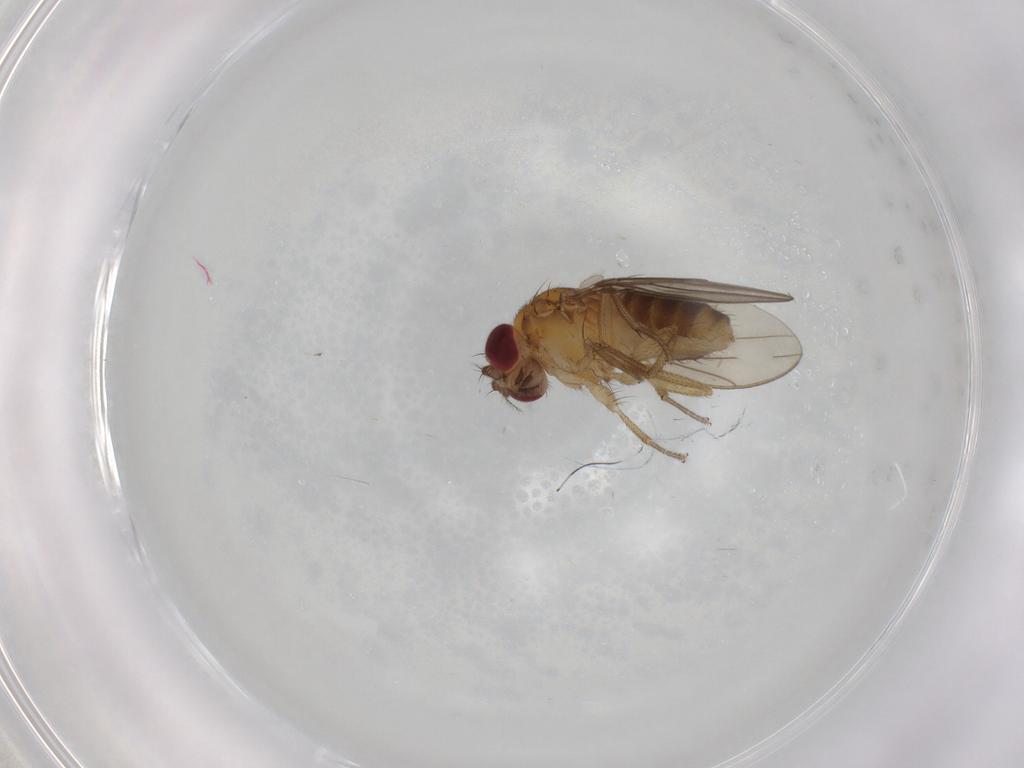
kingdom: Animalia
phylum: Arthropoda
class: Insecta
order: Diptera
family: Drosophilidae
